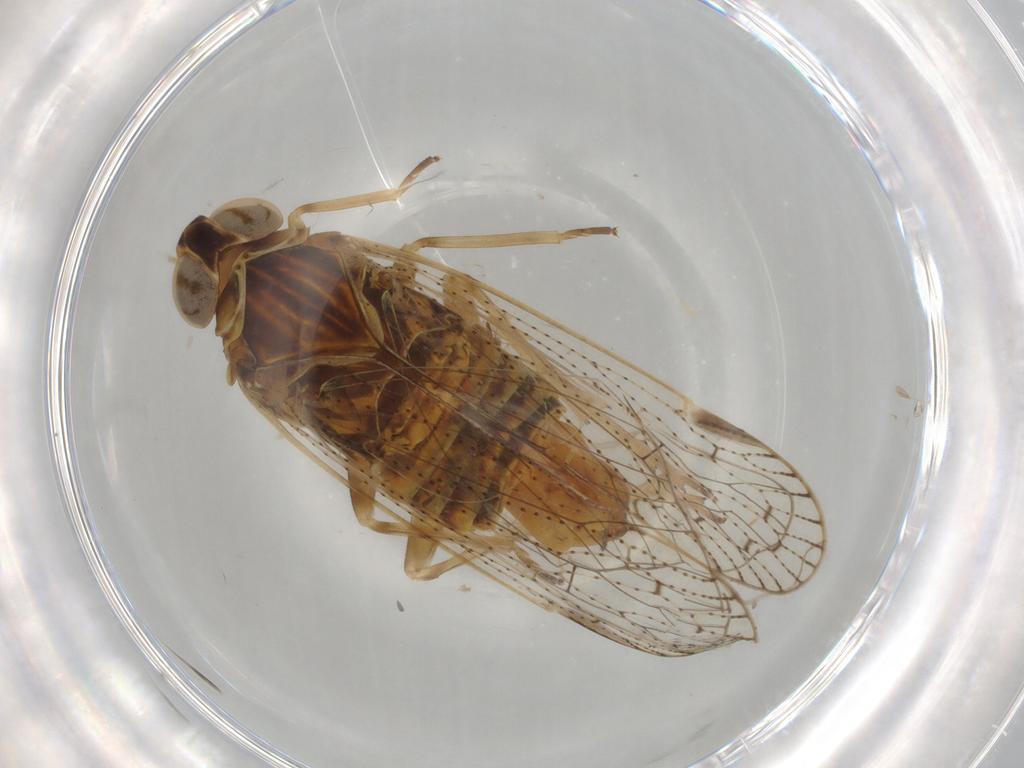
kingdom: Animalia
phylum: Arthropoda
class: Insecta
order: Hemiptera
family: Cixiidae
